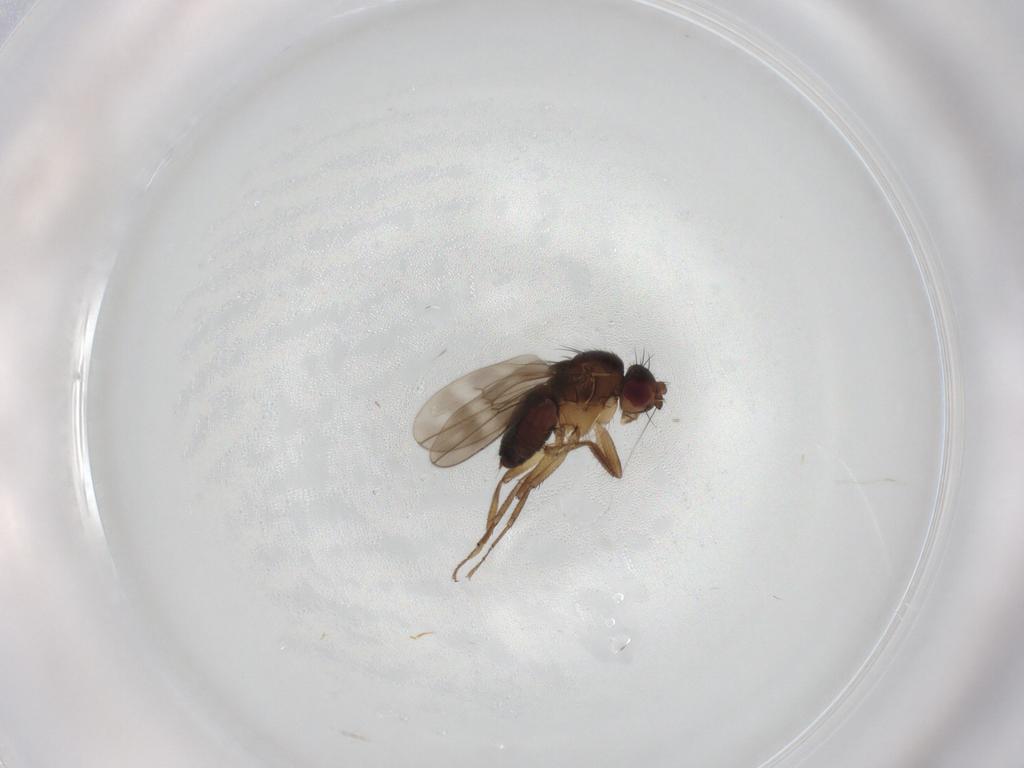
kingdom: Animalia
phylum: Arthropoda
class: Insecta
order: Diptera
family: Sphaeroceridae
